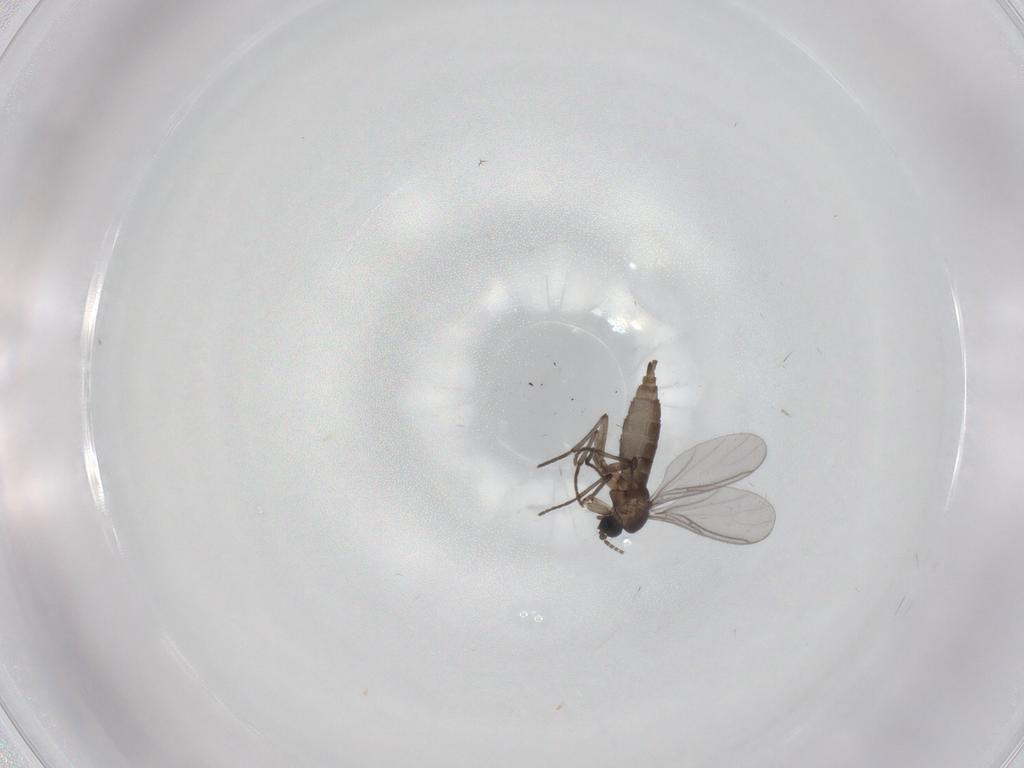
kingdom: Animalia
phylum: Arthropoda
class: Insecta
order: Diptera
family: Sciaridae
